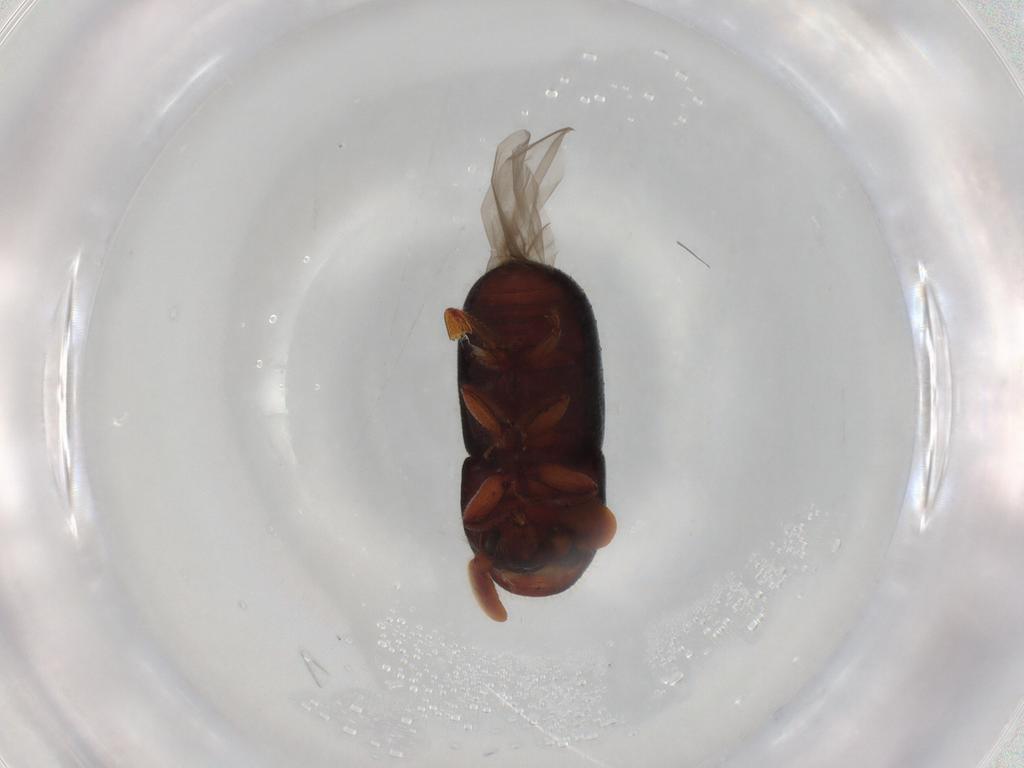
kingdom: Animalia
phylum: Arthropoda
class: Insecta
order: Coleoptera
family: Curculionidae
